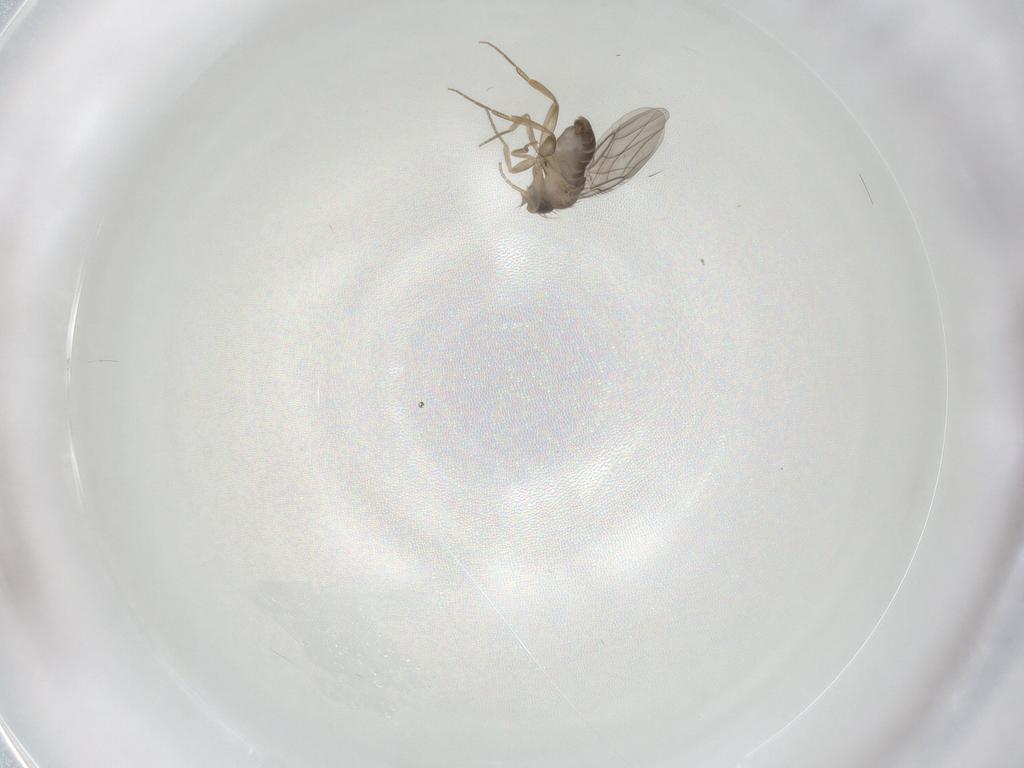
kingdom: Animalia
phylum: Arthropoda
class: Insecta
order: Diptera
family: Phoridae
